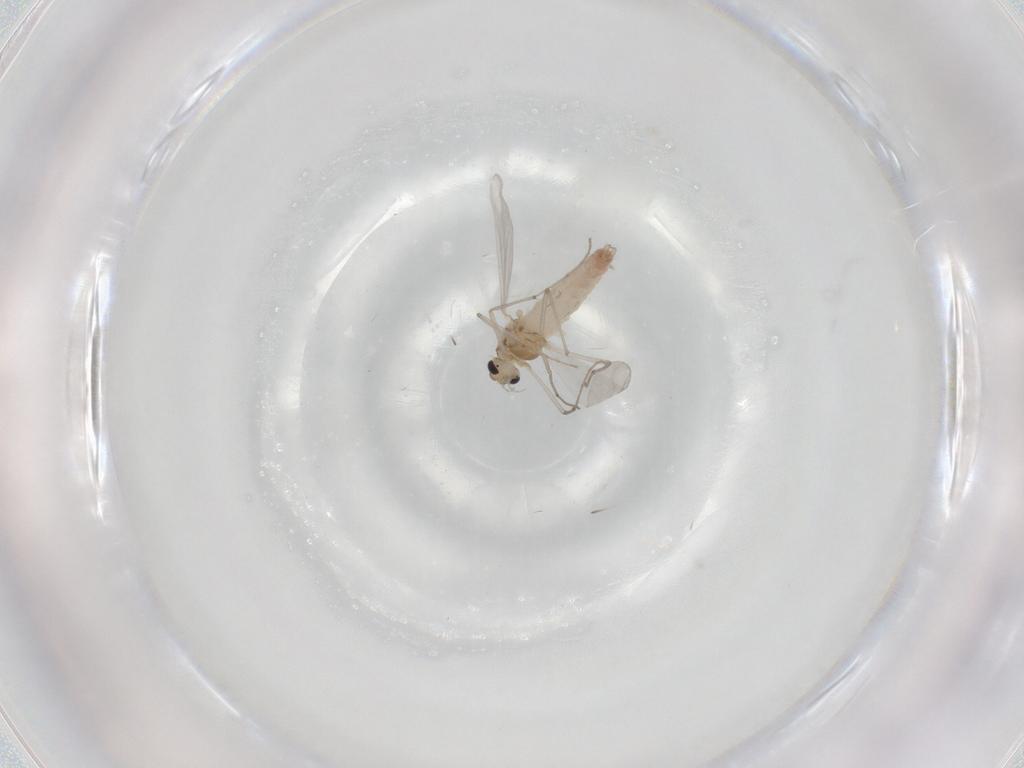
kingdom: Animalia
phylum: Arthropoda
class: Insecta
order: Diptera
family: Chironomidae
